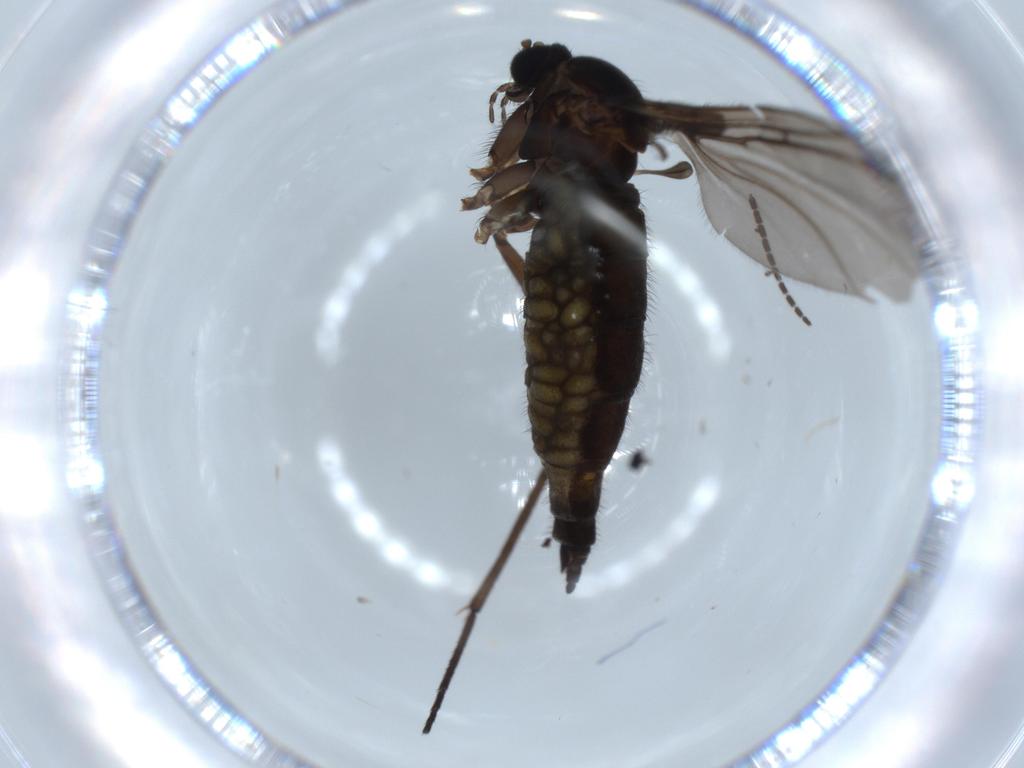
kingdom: Animalia
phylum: Arthropoda
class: Insecta
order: Diptera
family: Sciaridae
